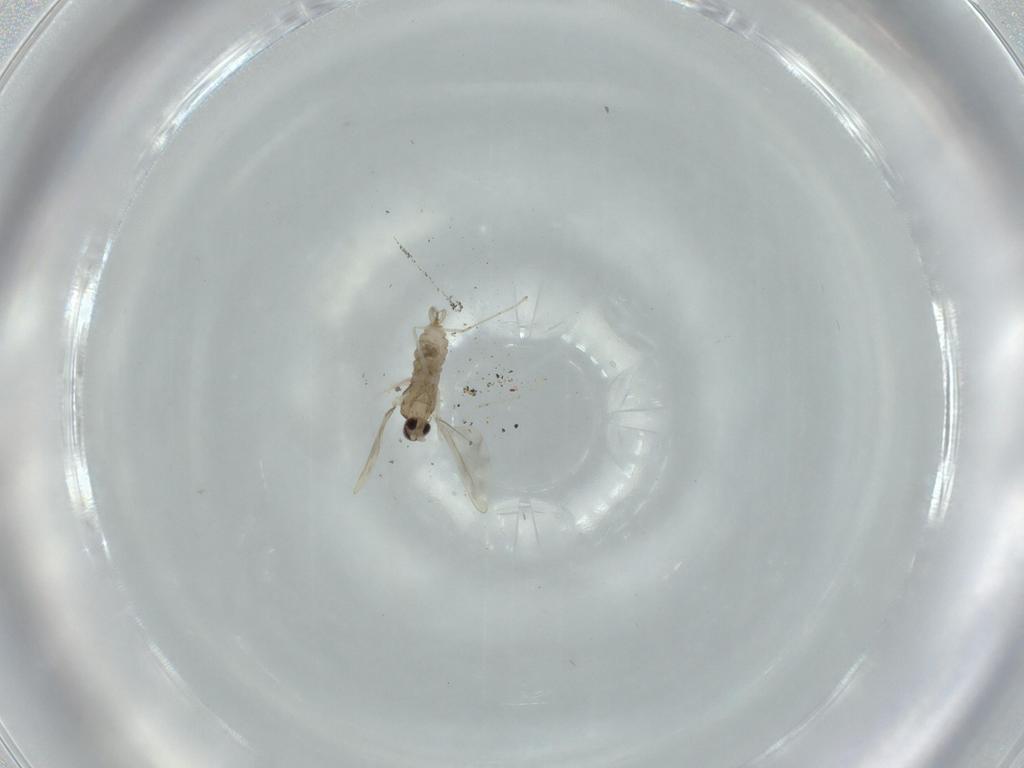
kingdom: Animalia
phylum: Arthropoda
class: Insecta
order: Diptera
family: Cecidomyiidae
